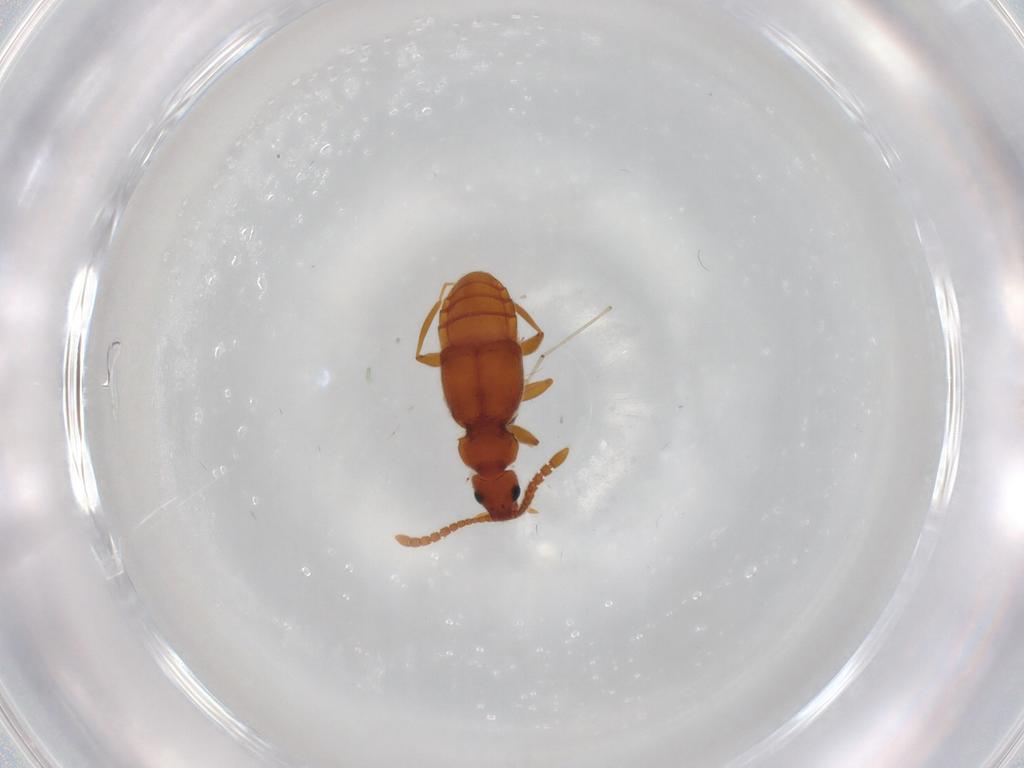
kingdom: Animalia
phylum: Arthropoda
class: Insecta
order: Coleoptera
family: Staphylinidae
